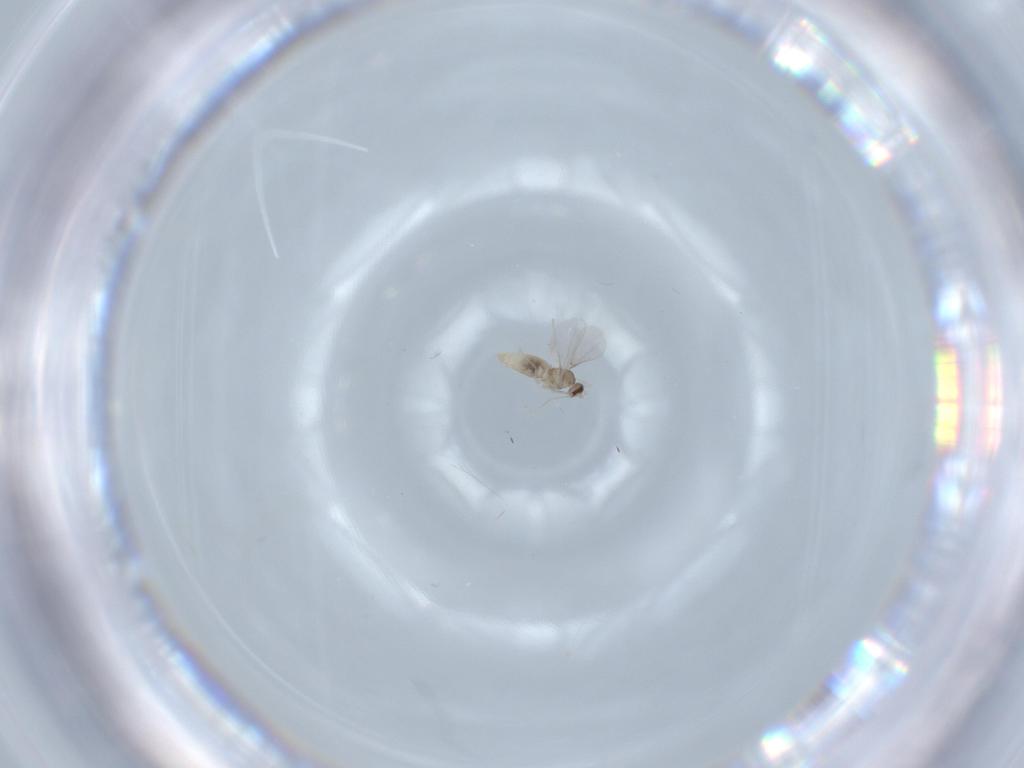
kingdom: Animalia
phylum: Arthropoda
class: Insecta
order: Diptera
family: Cecidomyiidae
